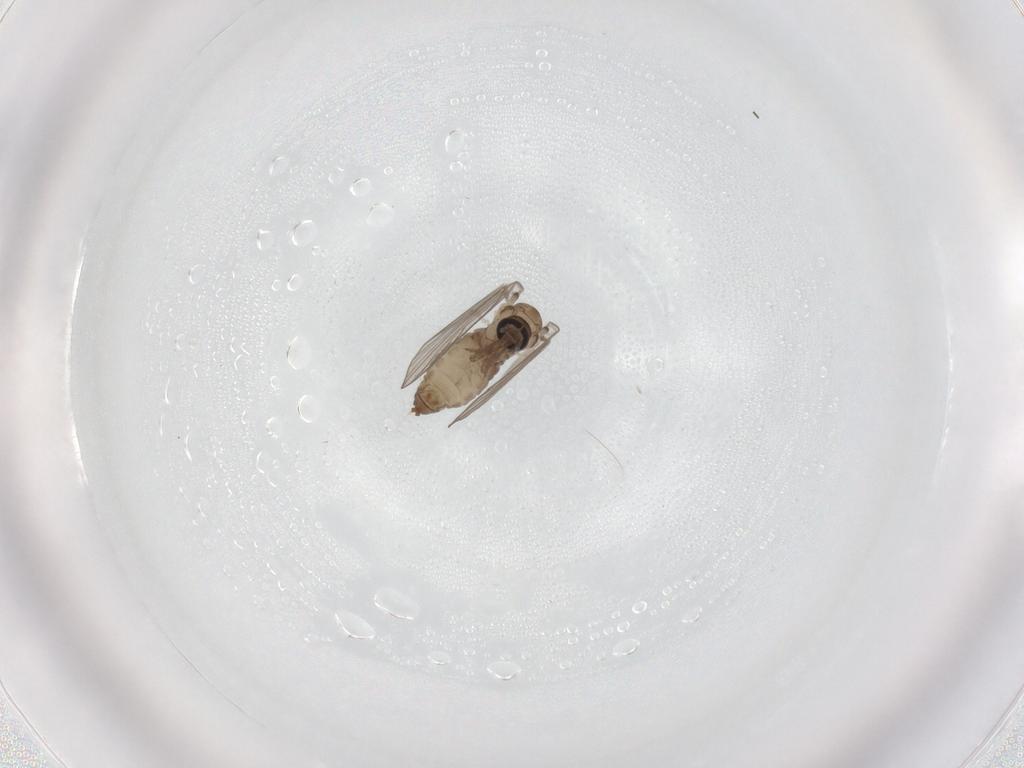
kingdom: Animalia
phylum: Arthropoda
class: Insecta
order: Diptera
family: Psychodidae
